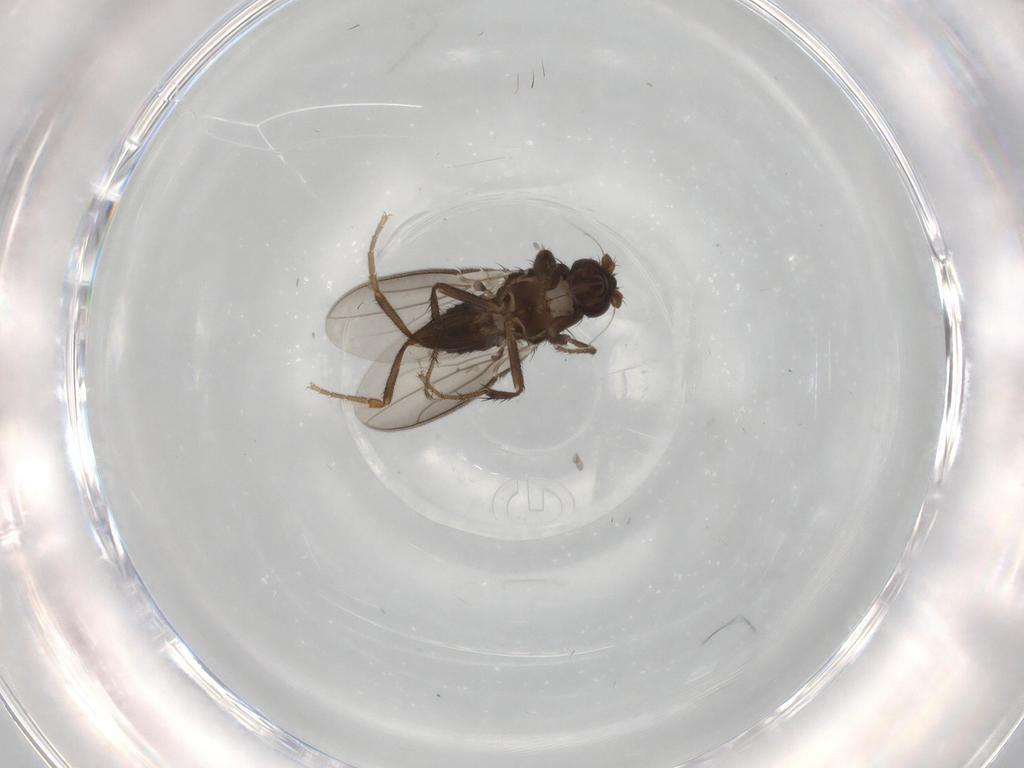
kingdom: Animalia
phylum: Arthropoda
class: Insecta
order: Diptera
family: Sphaeroceridae
